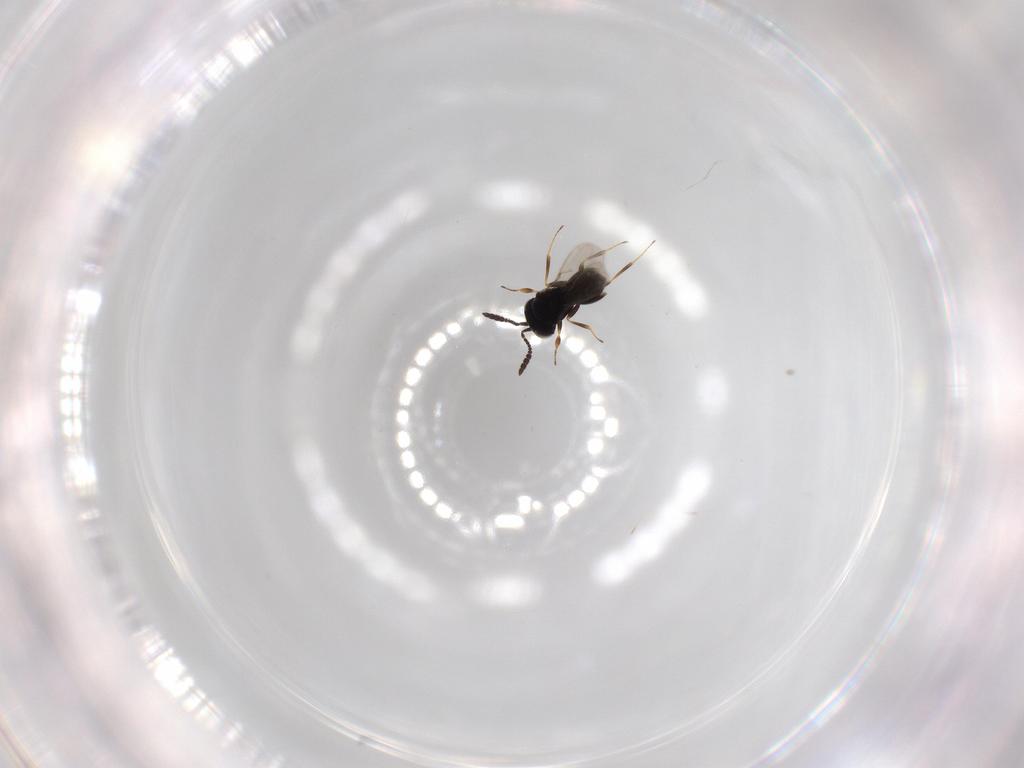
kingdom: Animalia
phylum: Arthropoda
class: Insecta
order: Hymenoptera
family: Scelionidae
